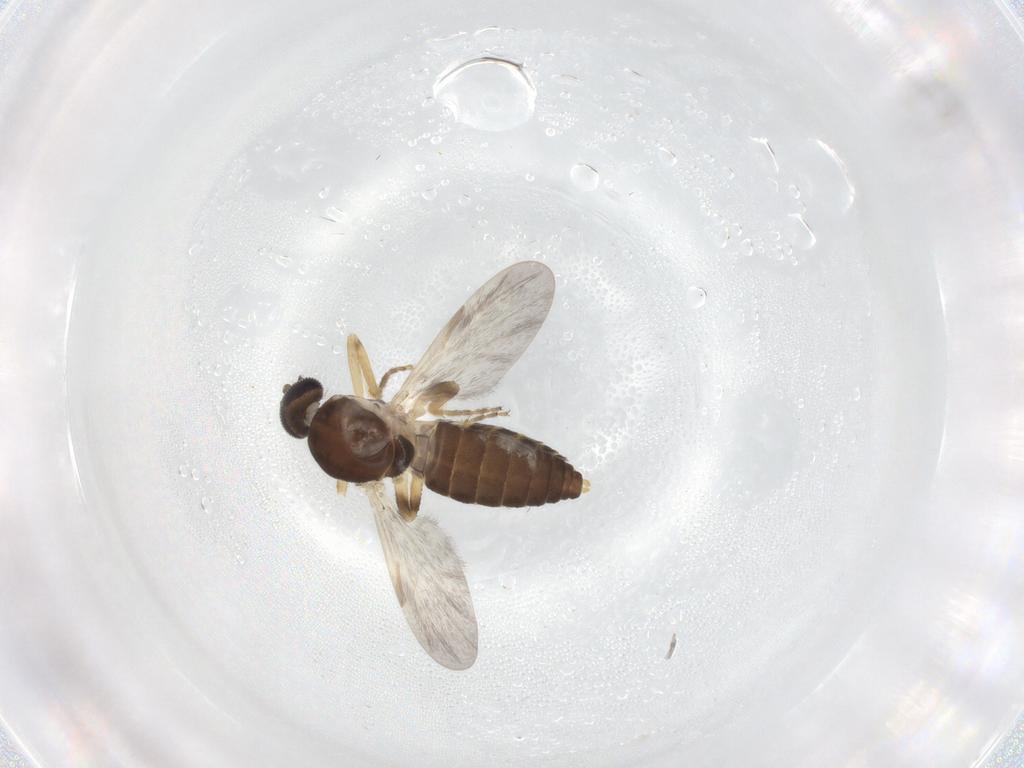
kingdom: Animalia
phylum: Arthropoda
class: Insecta
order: Diptera
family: Ceratopogonidae
